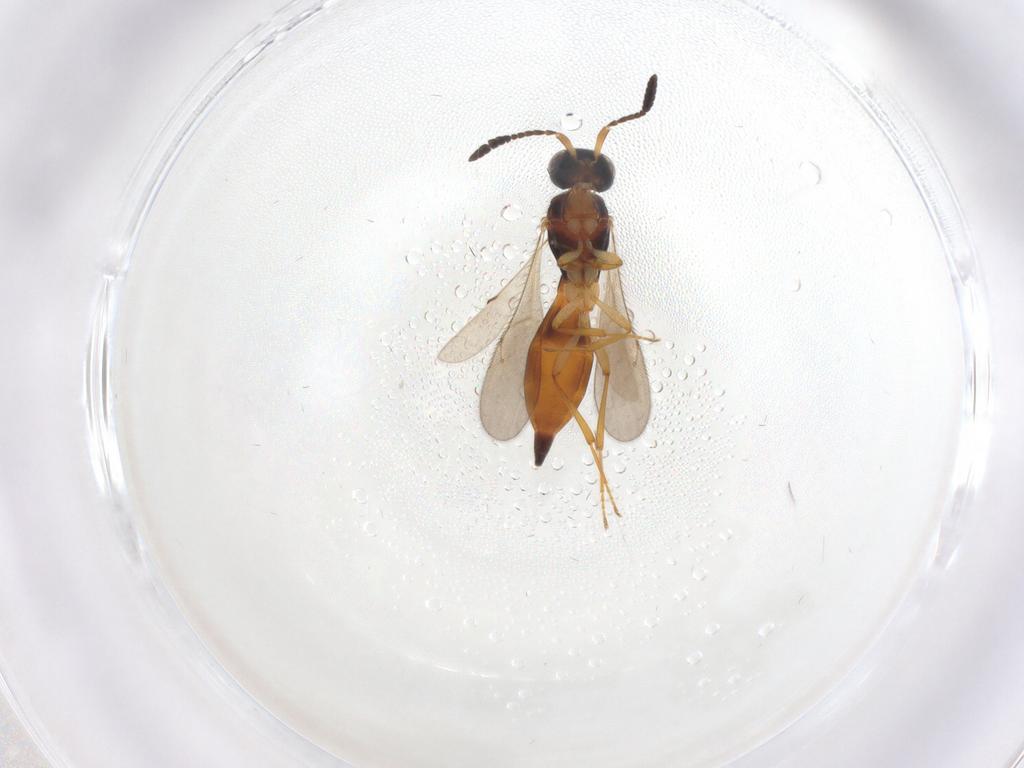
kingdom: Animalia
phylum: Arthropoda
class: Insecta
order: Hymenoptera
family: Scelionidae
